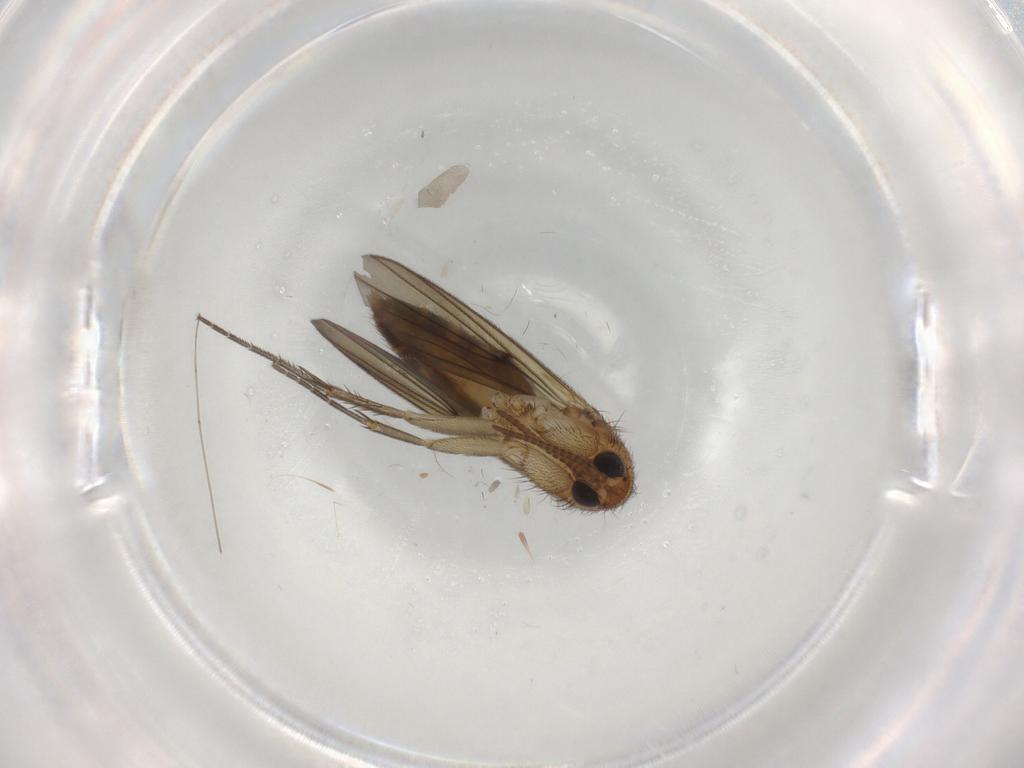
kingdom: Animalia
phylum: Arthropoda
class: Insecta
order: Diptera
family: Mycetophilidae
